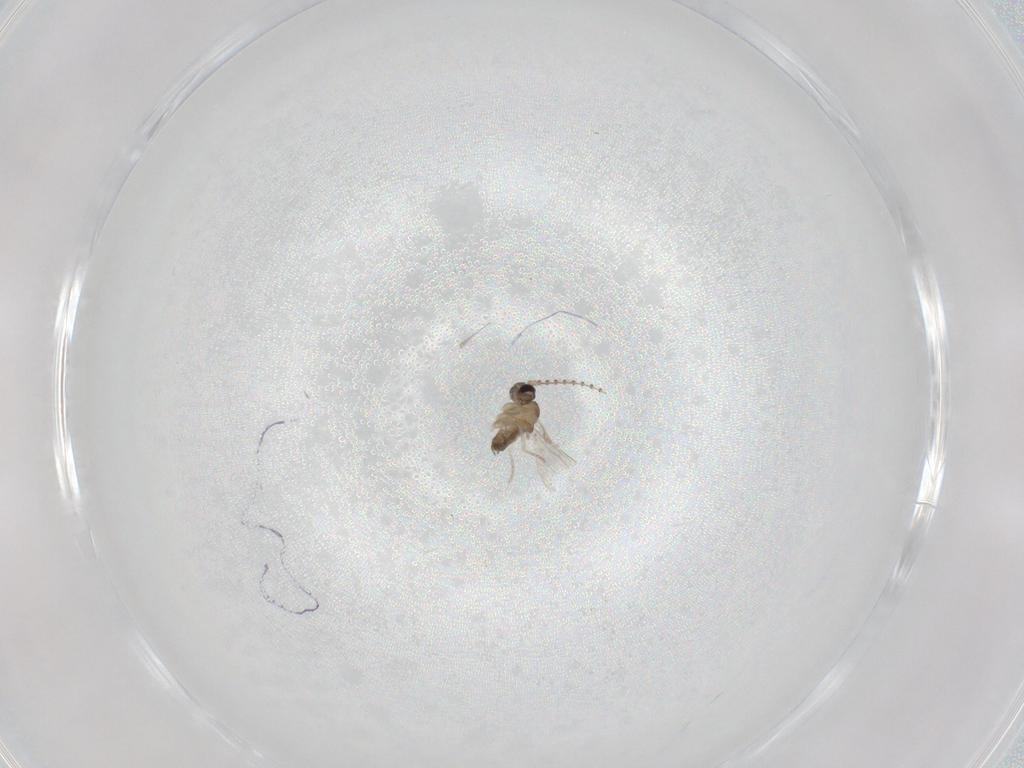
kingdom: Animalia
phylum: Arthropoda
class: Insecta
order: Diptera
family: Cecidomyiidae
